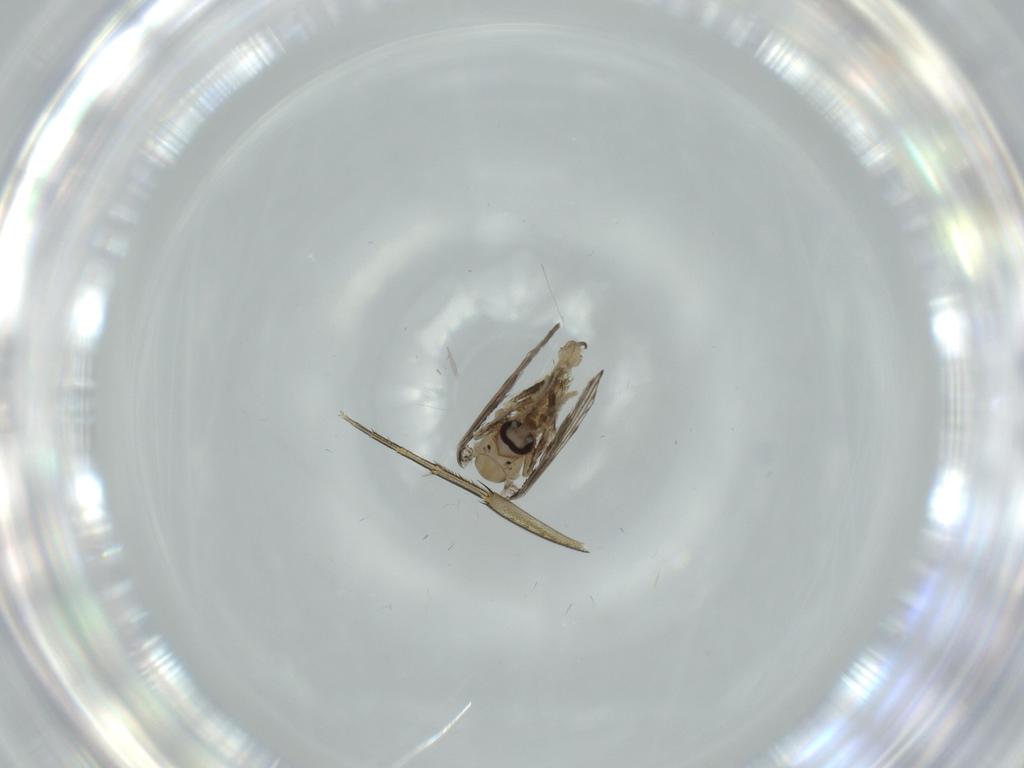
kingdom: Animalia
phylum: Arthropoda
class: Insecta
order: Diptera
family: Psychodidae
